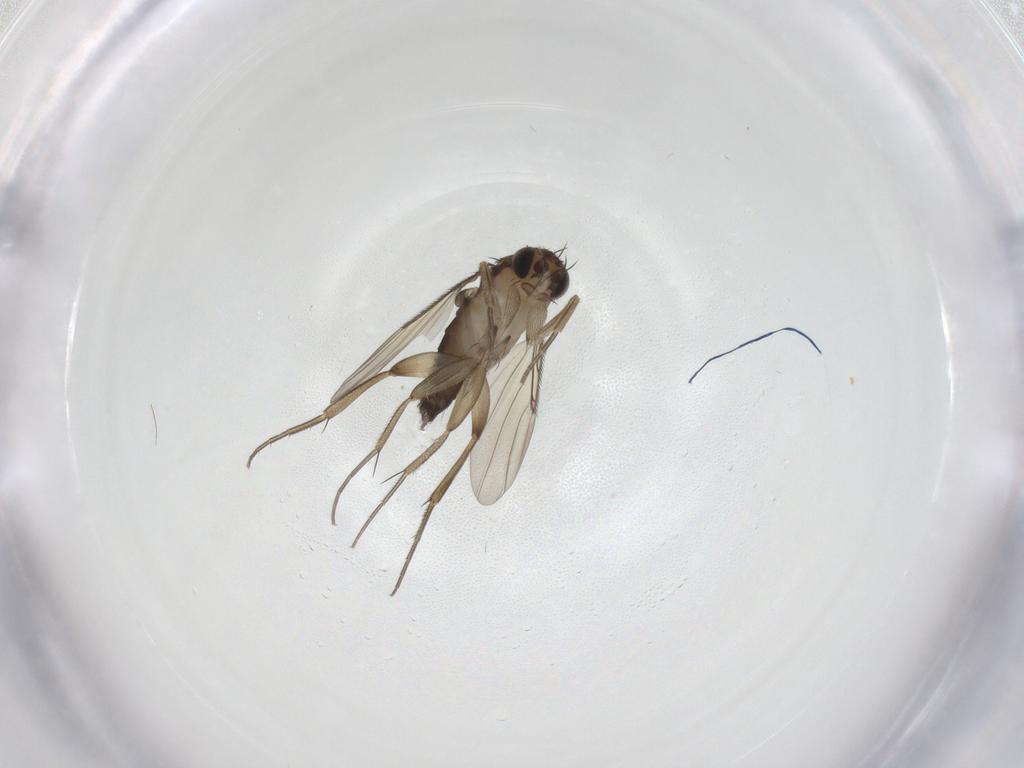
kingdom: Animalia
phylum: Arthropoda
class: Insecta
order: Diptera
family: Phoridae
